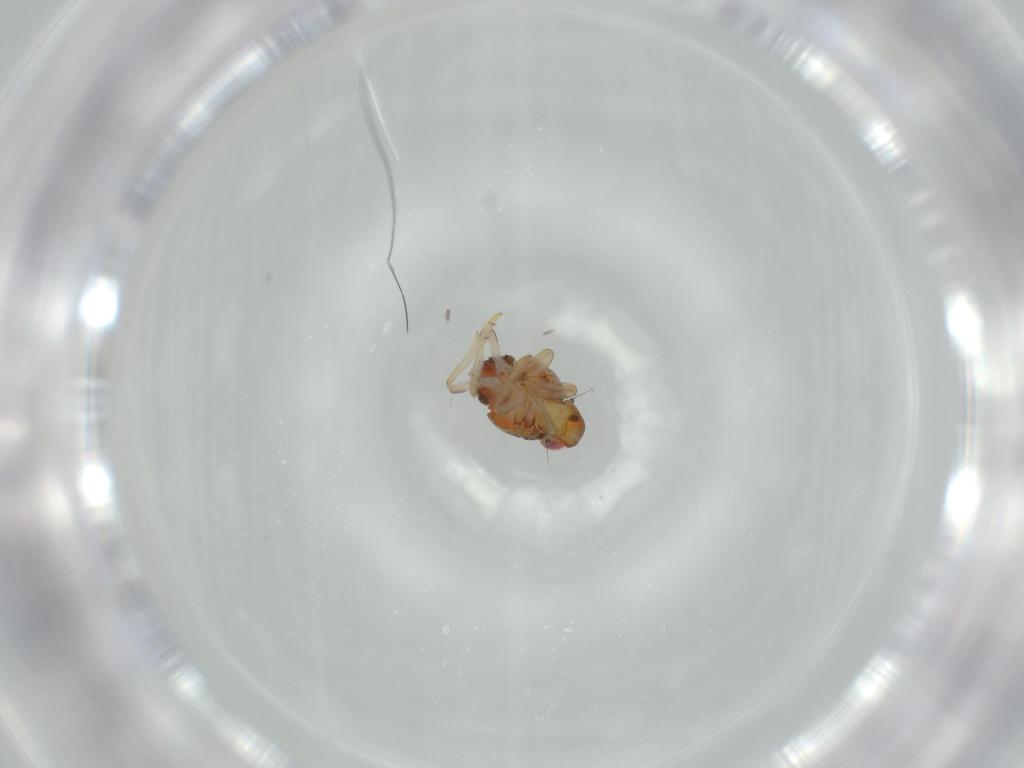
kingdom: Animalia
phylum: Arthropoda
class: Insecta
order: Hemiptera
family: Issidae
